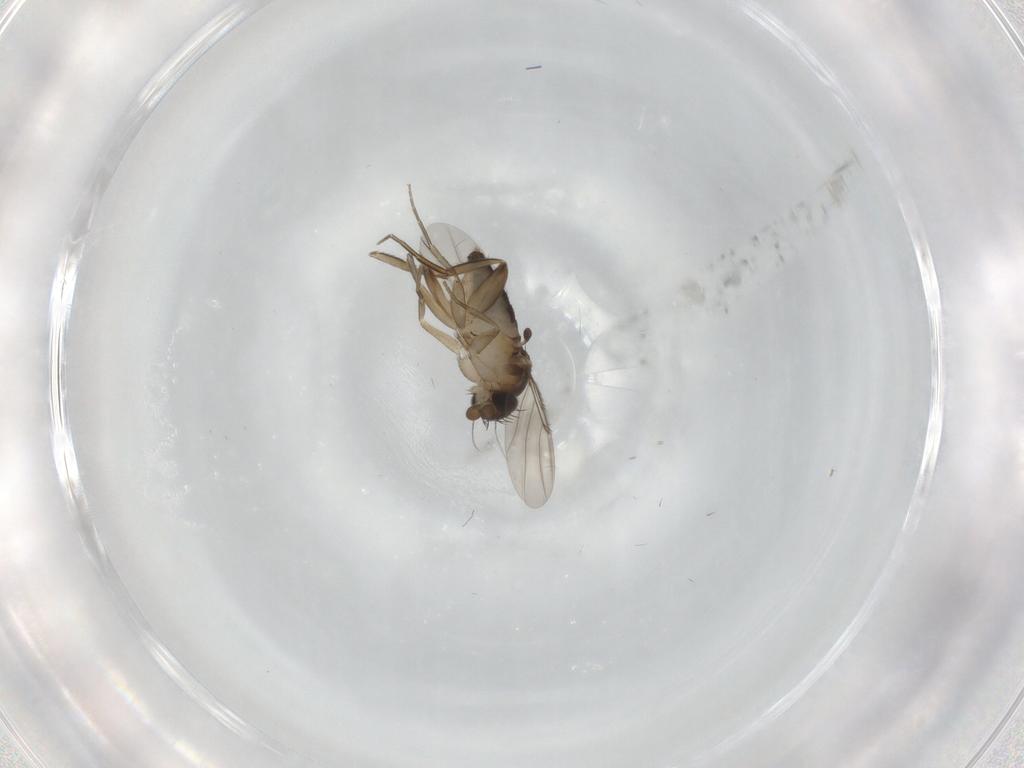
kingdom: Animalia
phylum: Arthropoda
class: Insecta
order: Diptera
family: Phoridae
